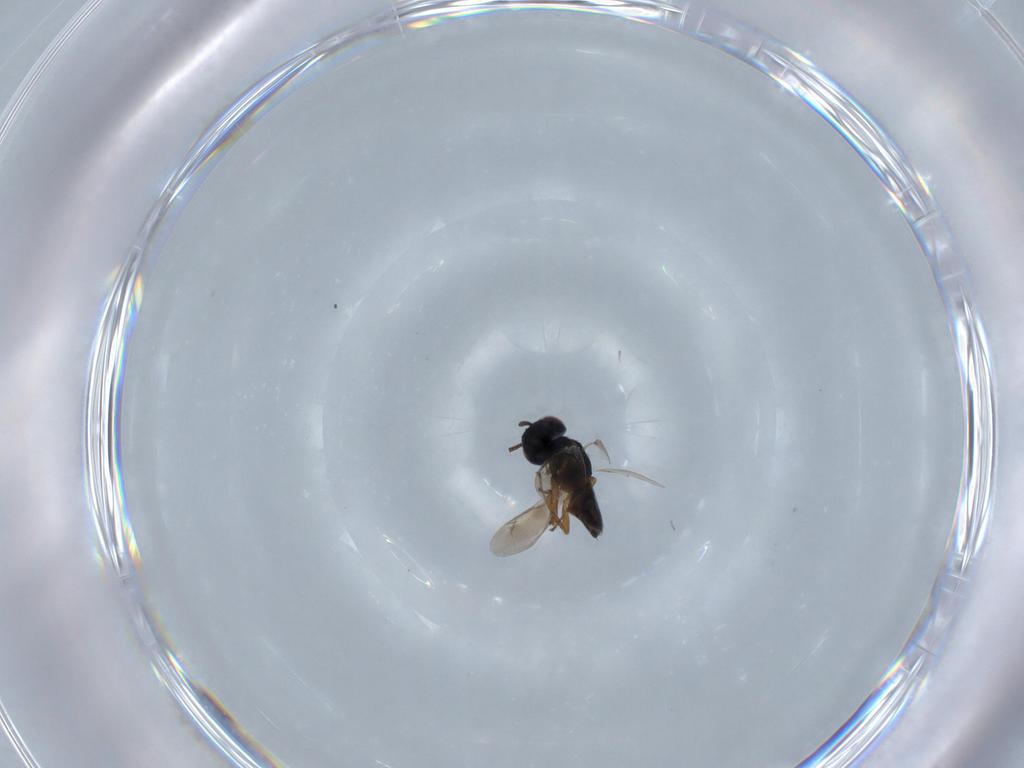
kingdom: Animalia
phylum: Arthropoda
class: Insecta
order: Hymenoptera
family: Pteromalidae
